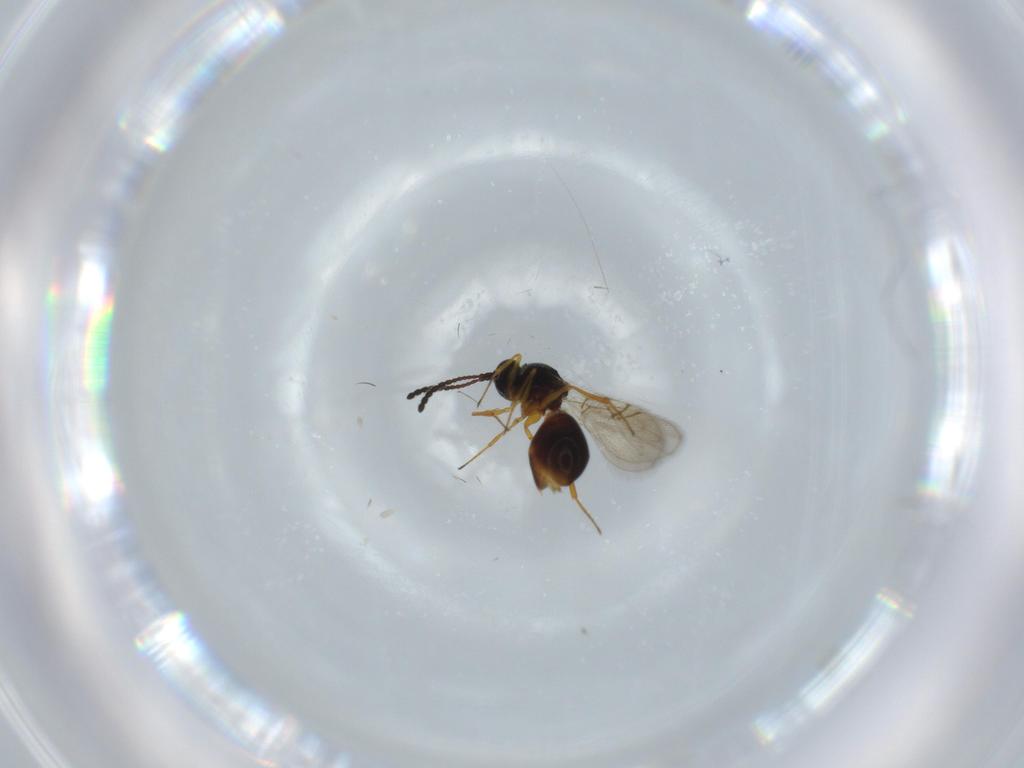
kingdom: Animalia
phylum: Arthropoda
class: Insecta
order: Hymenoptera
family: Figitidae
